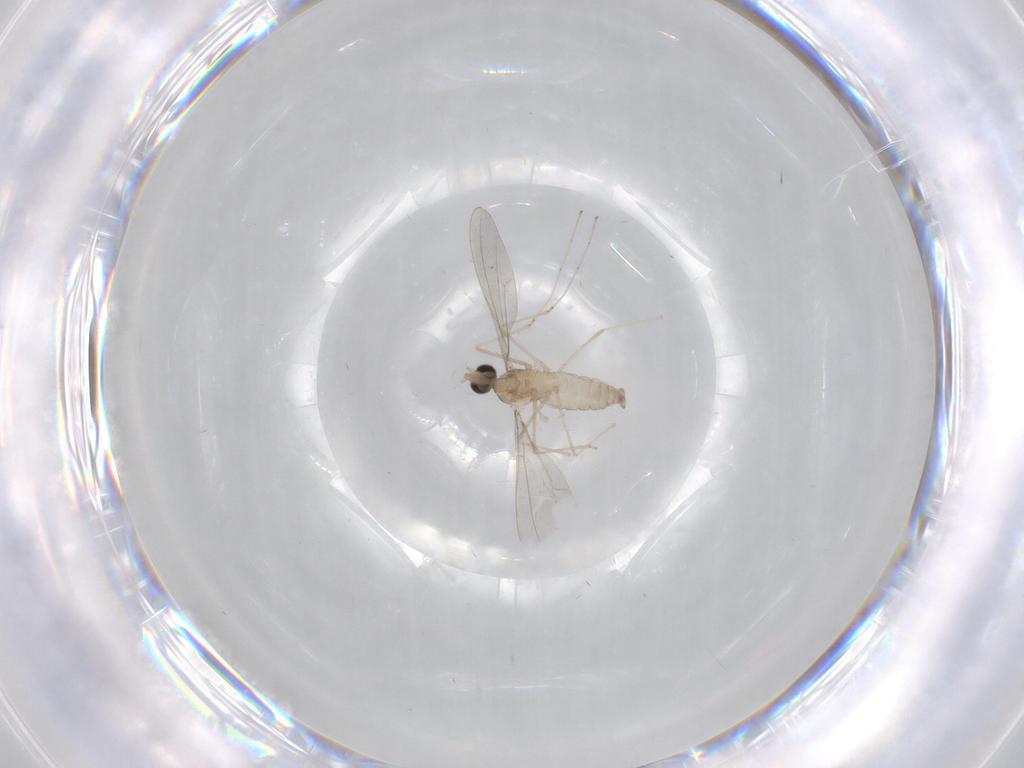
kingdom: Animalia
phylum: Arthropoda
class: Insecta
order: Diptera
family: Cecidomyiidae
